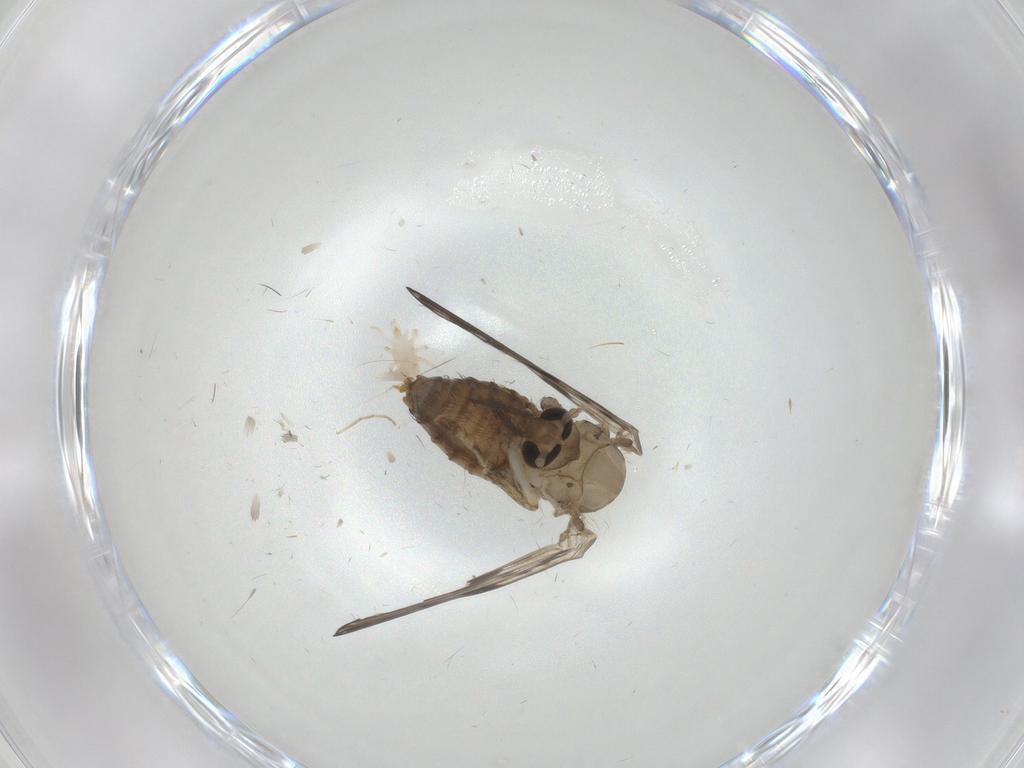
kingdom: Animalia
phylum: Arthropoda
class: Insecta
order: Diptera
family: Psychodidae
